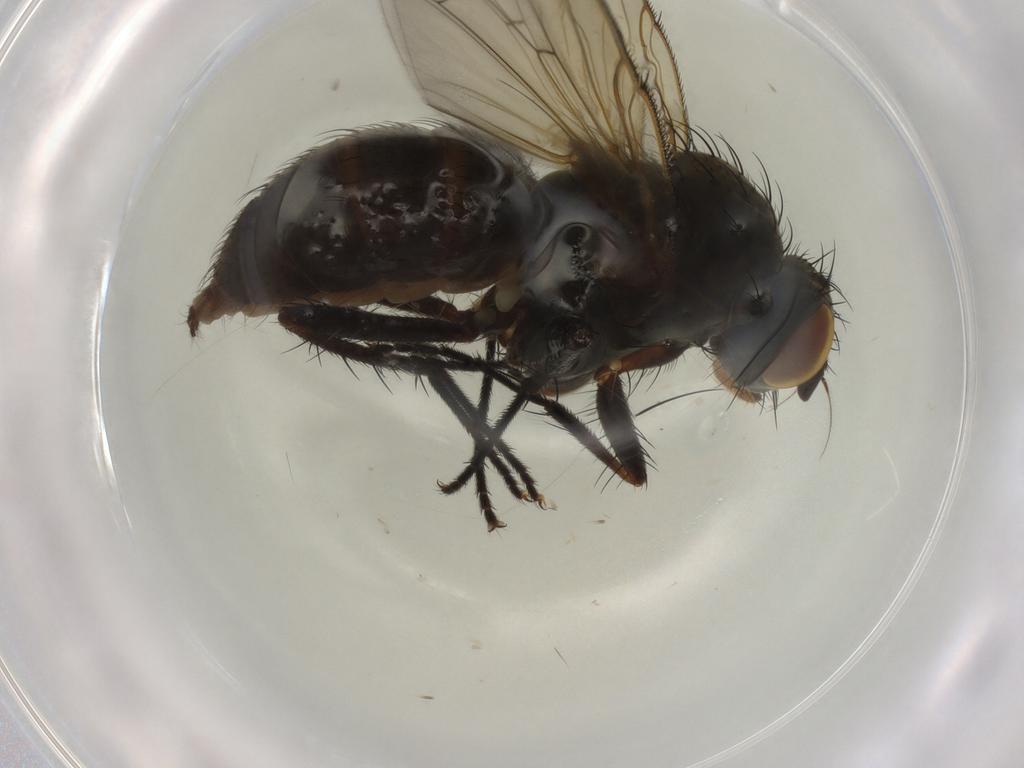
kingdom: Animalia
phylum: Arthropoda
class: Insecta
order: Diptera
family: Anthomyiidae
